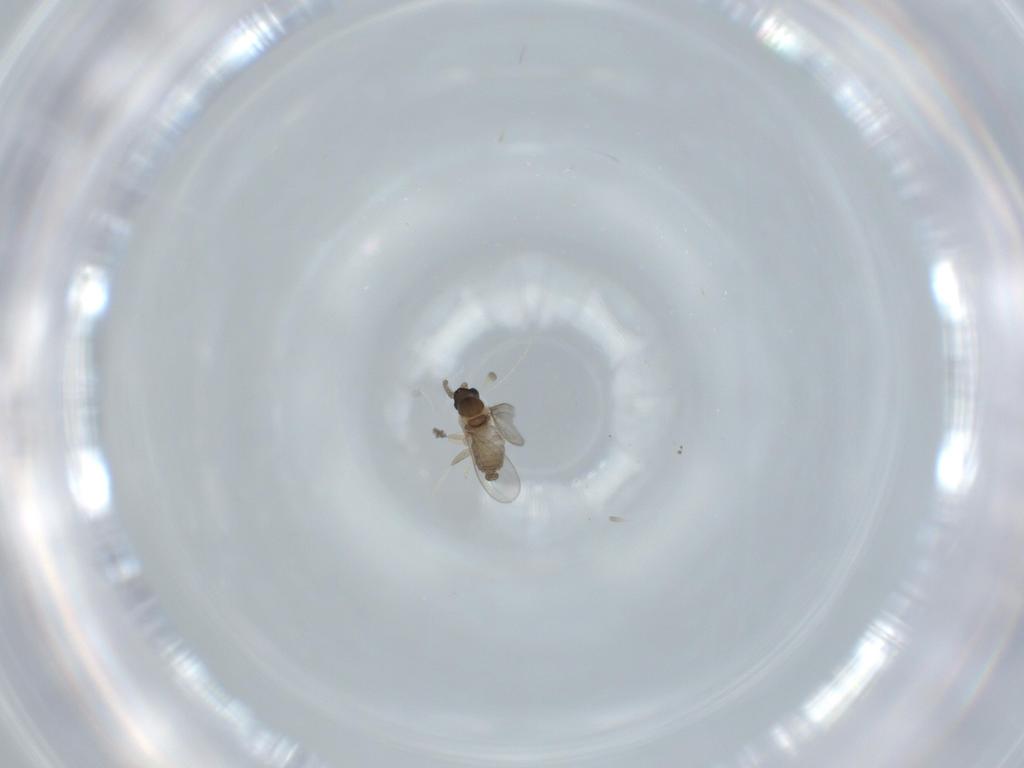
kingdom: Animalia
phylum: Arthropoda
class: Insecta
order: Diptera
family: Cecidomyiidae
